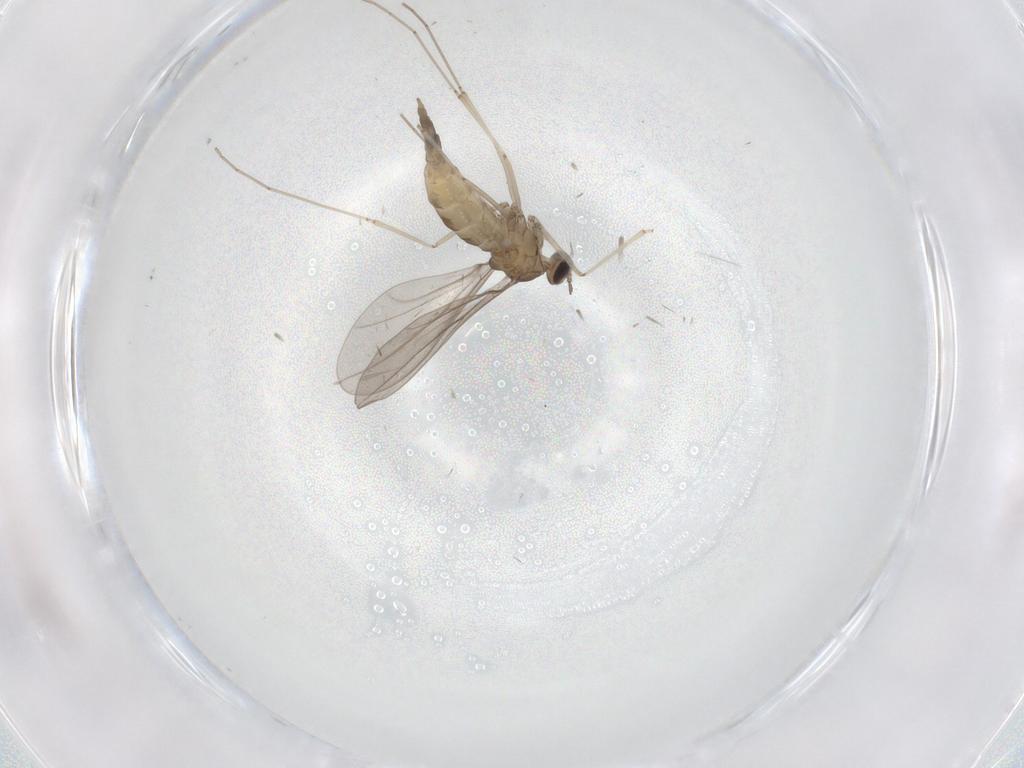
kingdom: Animalia
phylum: Arthropoda
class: Insecta
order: Diptera
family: Cecidomyiidae
